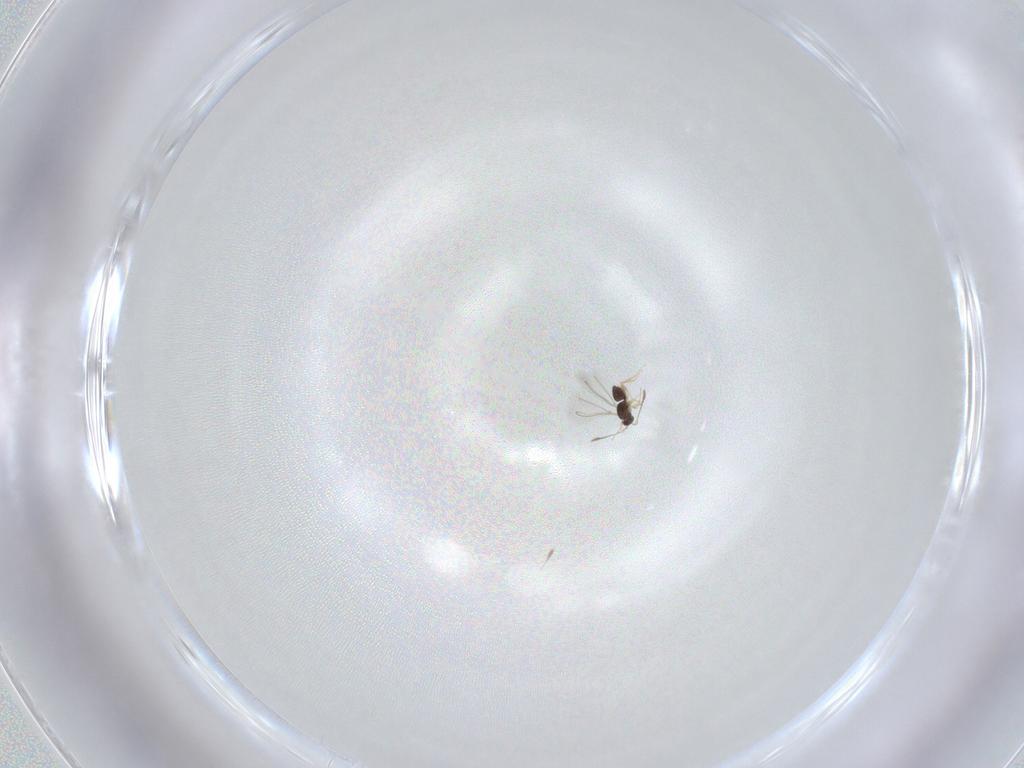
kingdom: Animalia
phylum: Arthropoda
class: Insecta
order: Hymenoptera
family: Mymaridae
